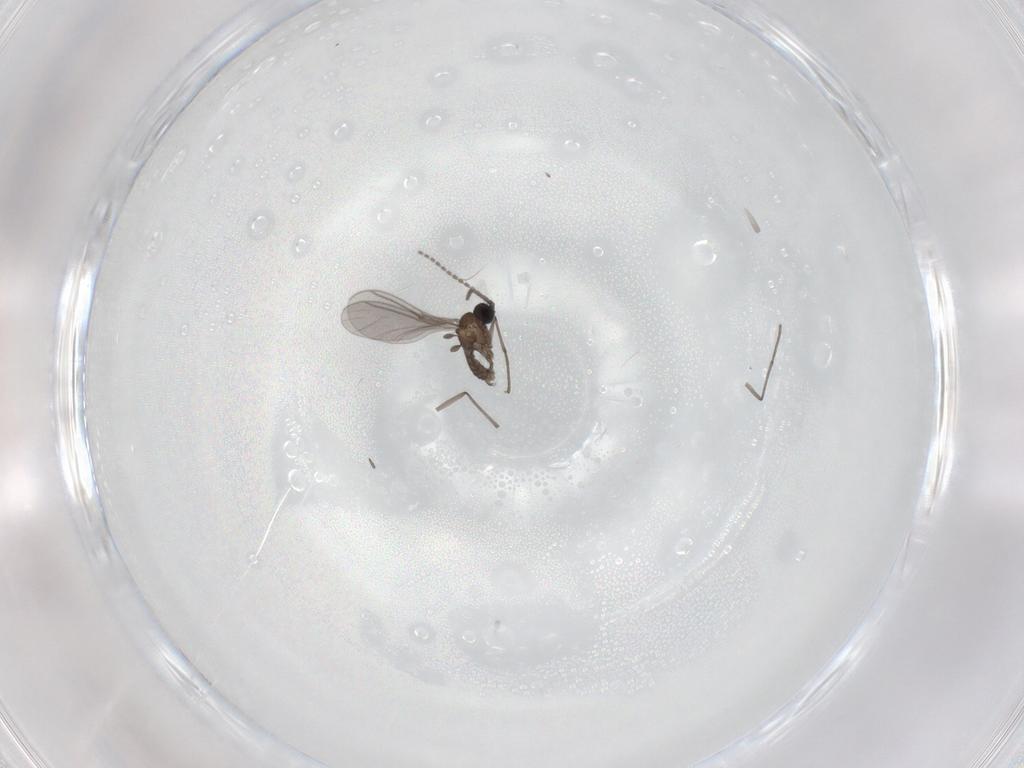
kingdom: Animalia
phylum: Arthropoda
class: Insecta
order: Diptera
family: Sciaridae
